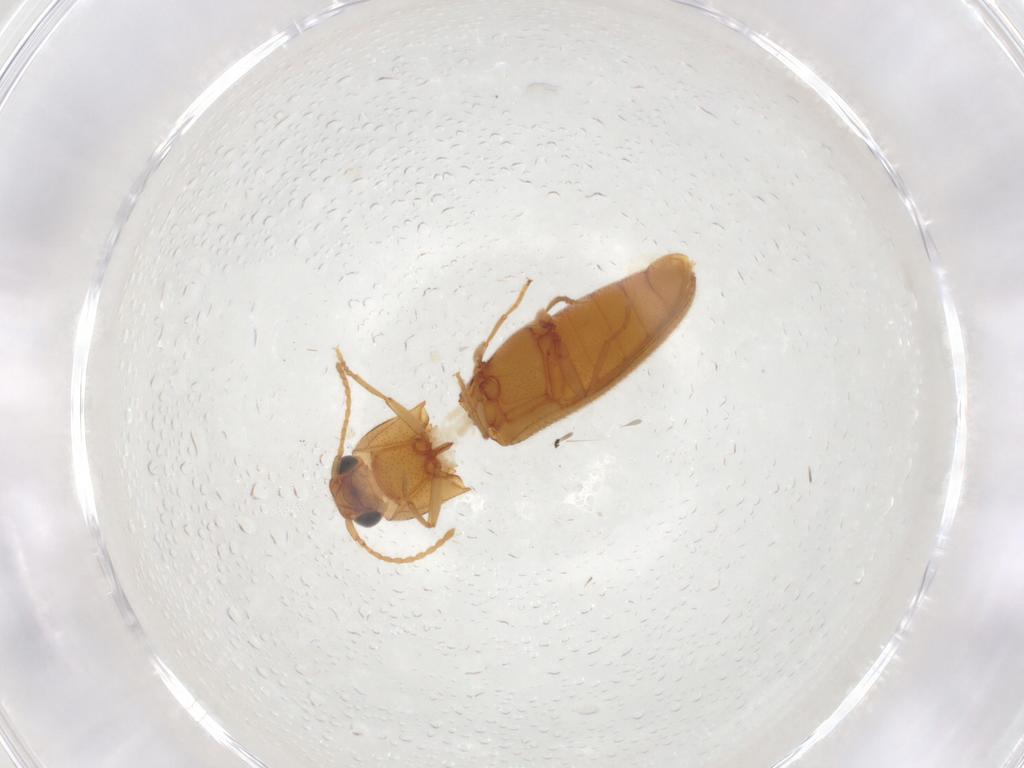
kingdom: Animalia
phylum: Arthropoda
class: Insecta
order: Coleoptera
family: Elateridae
